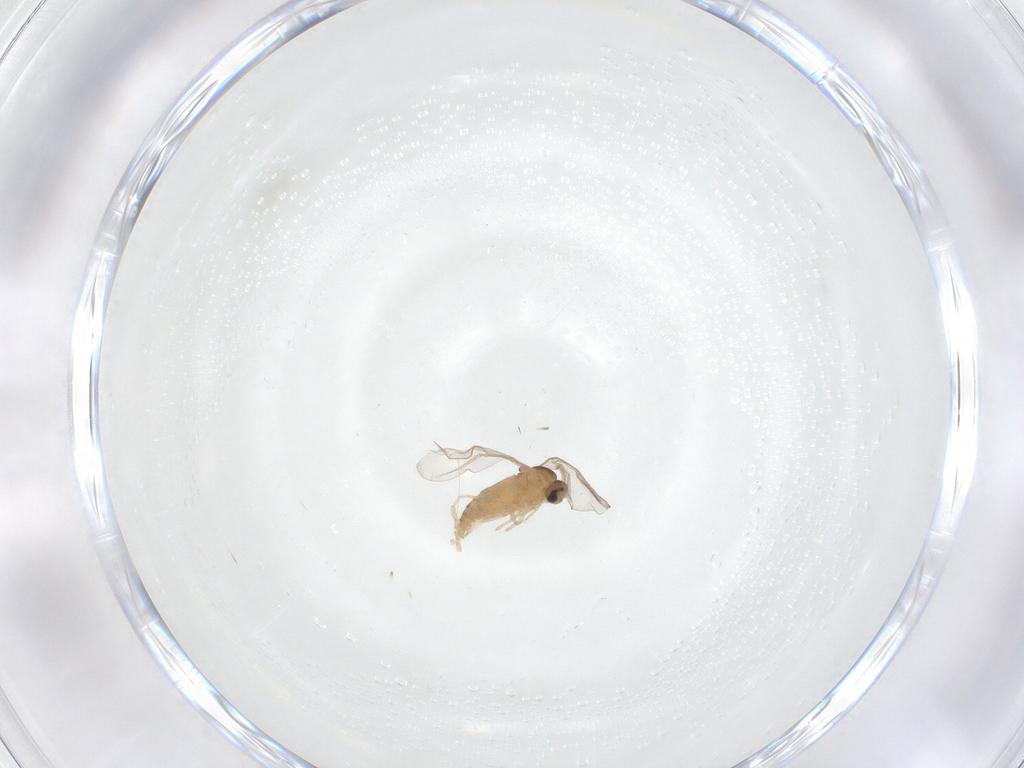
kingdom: Animalia
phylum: Arthropoda
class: Insecta
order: Diptera
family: Cecidomyiidae
